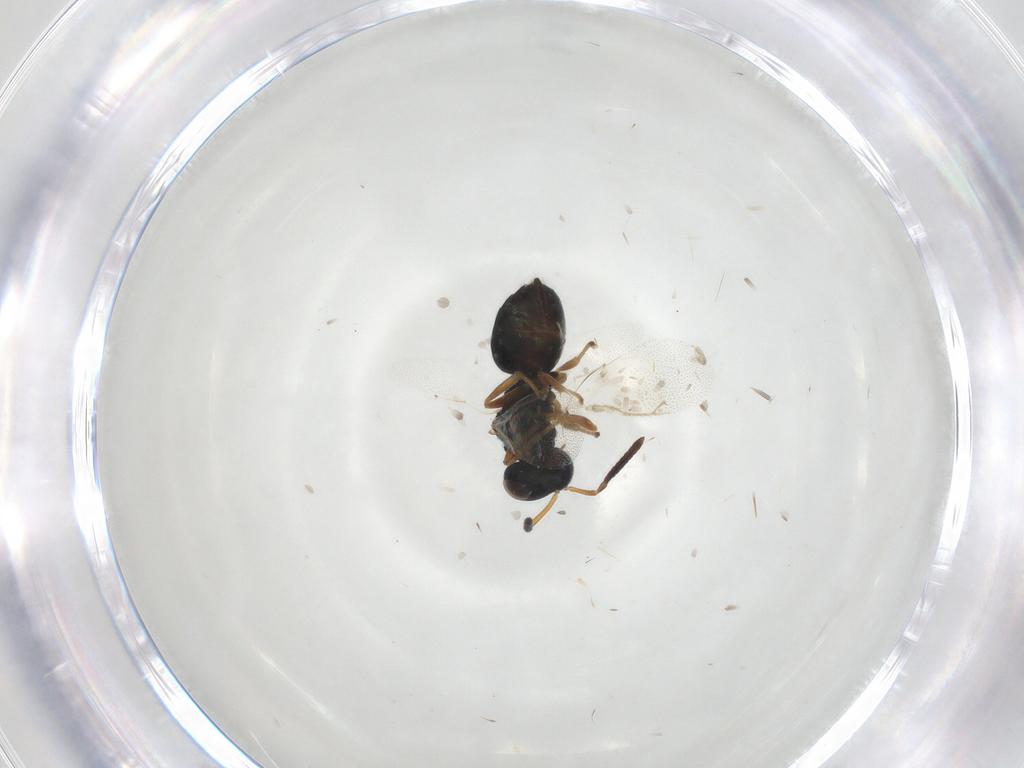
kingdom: Animalia
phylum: Arthropoda
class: Insecta
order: Hymenoptera
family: Pteromalidae
